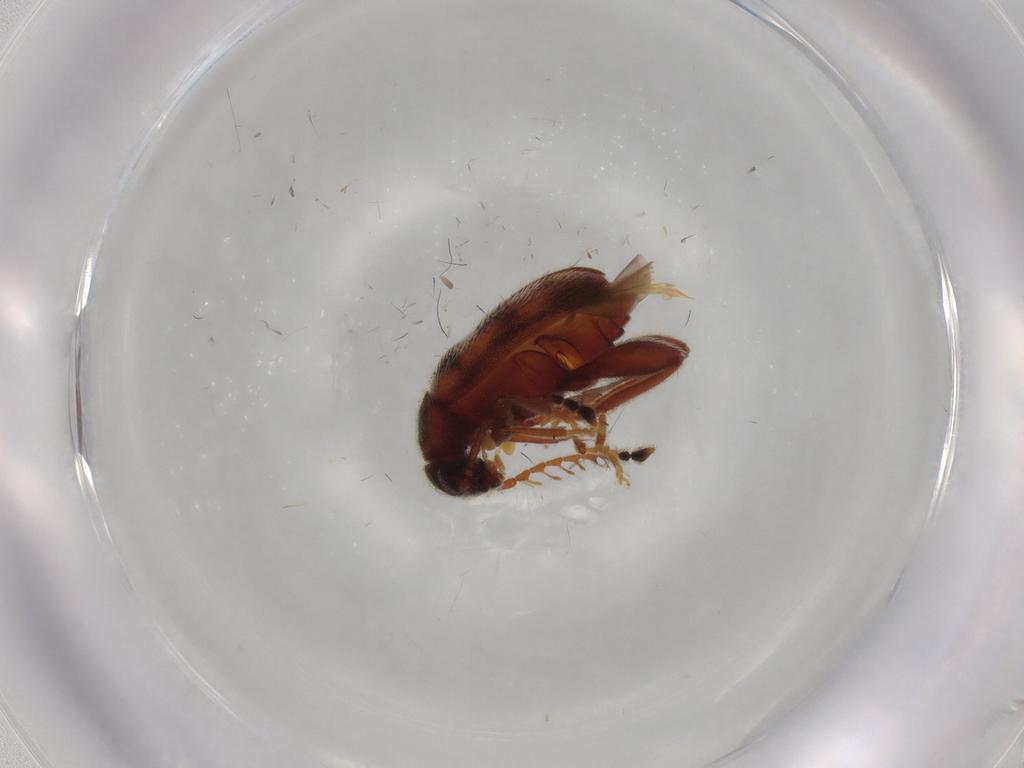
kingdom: Animalia
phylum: Arthropoda
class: Insecta
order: Coleoptera
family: Aderidae
